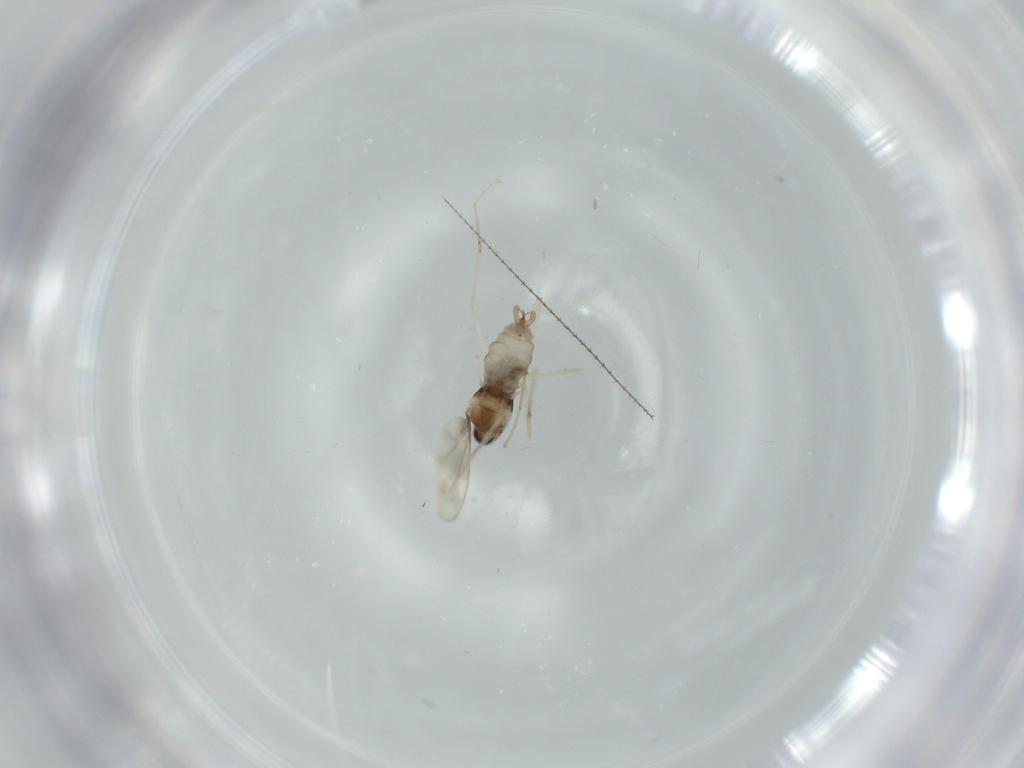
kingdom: Animalia
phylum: Arthropoda
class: Insecta
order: Diptera
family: Cecidomyiidae
